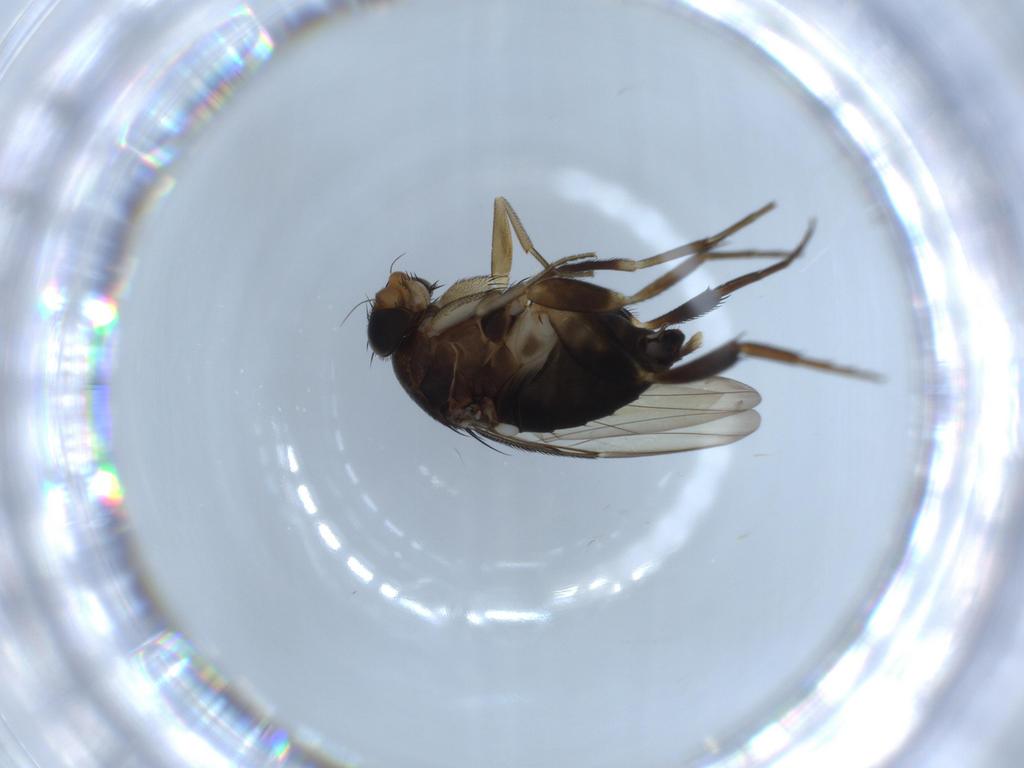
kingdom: Animalia
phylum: Arthropoda
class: Insecta
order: Diptera
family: Phoridae
